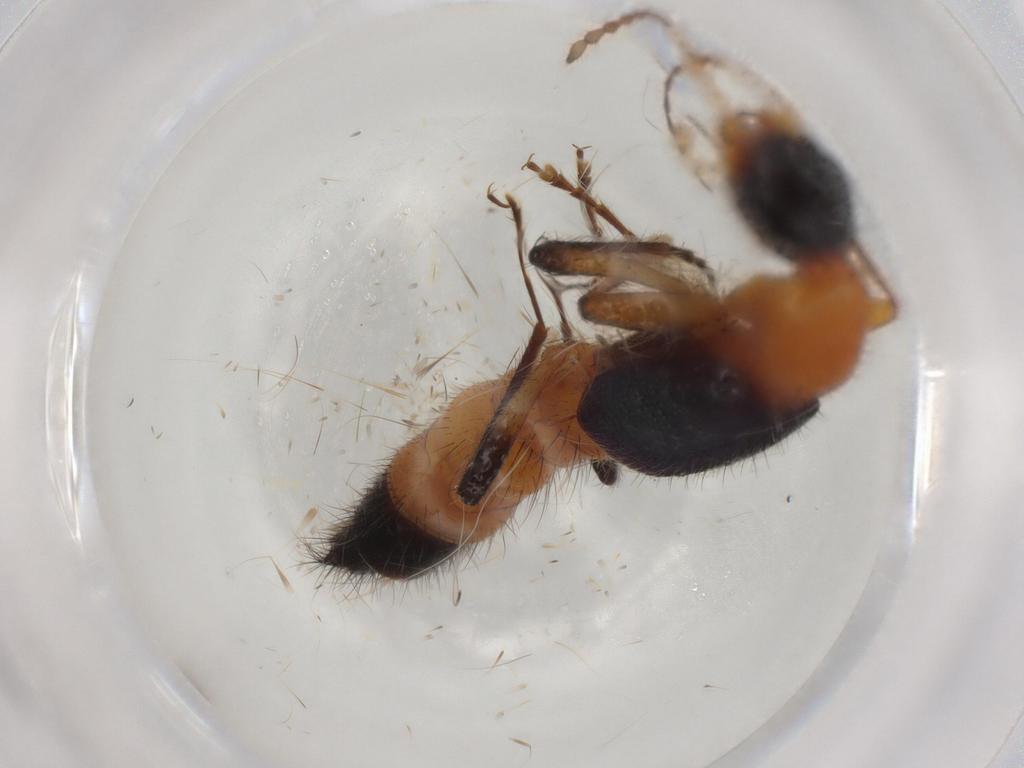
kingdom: Animalia
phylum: Arthropoda
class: Insecta
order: Coleoptera
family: Staphylinidae
